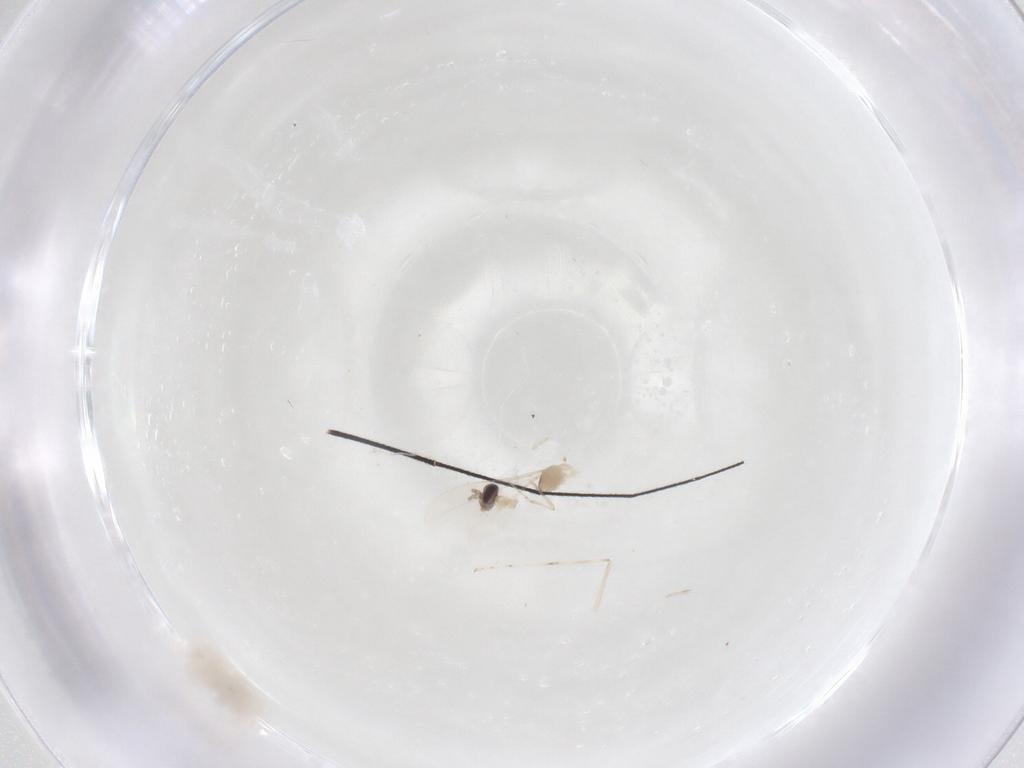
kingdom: Animalia
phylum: Arthropoda
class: Insecta
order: Diptera
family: Cecidomyiidae
